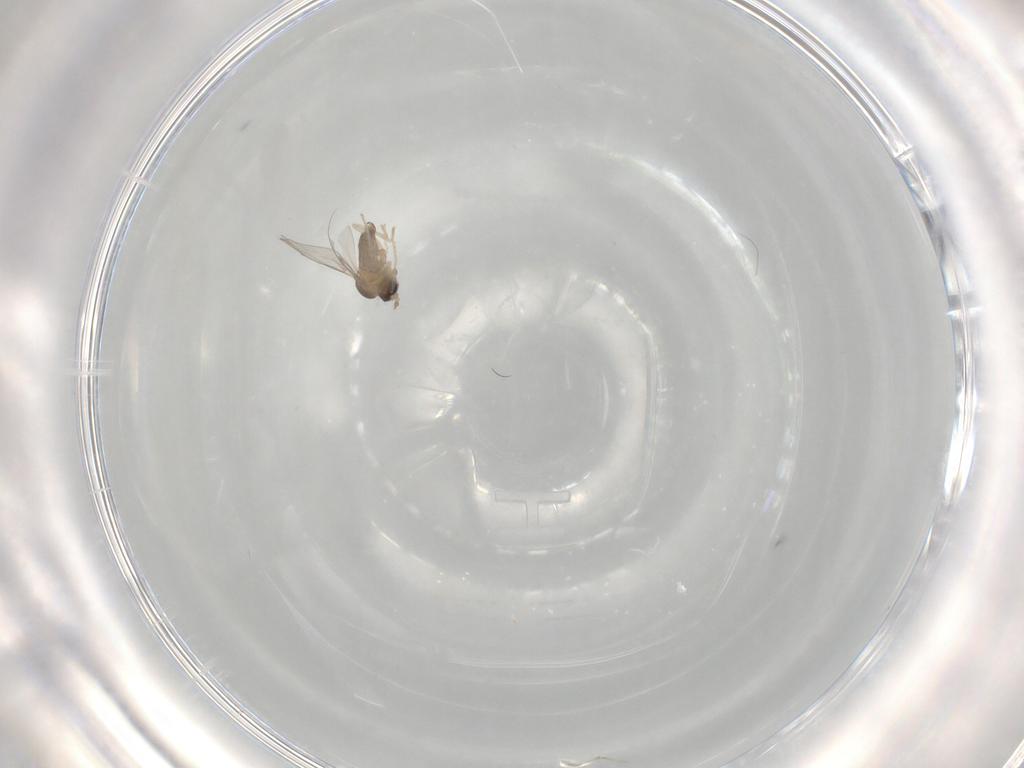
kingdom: Animalia
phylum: Arthropoda
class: Insecta
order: Diptera
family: Cecidomyiidae
